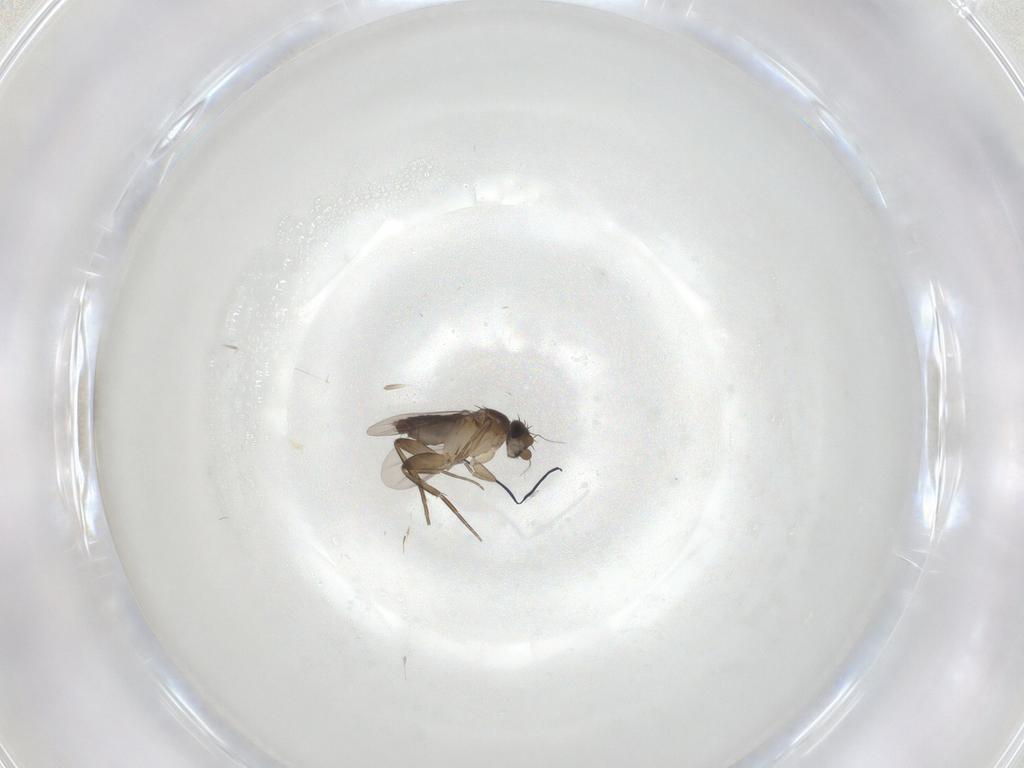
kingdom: Animalia
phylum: Arthropoda
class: Insecta
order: Diptera
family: Phoridae
